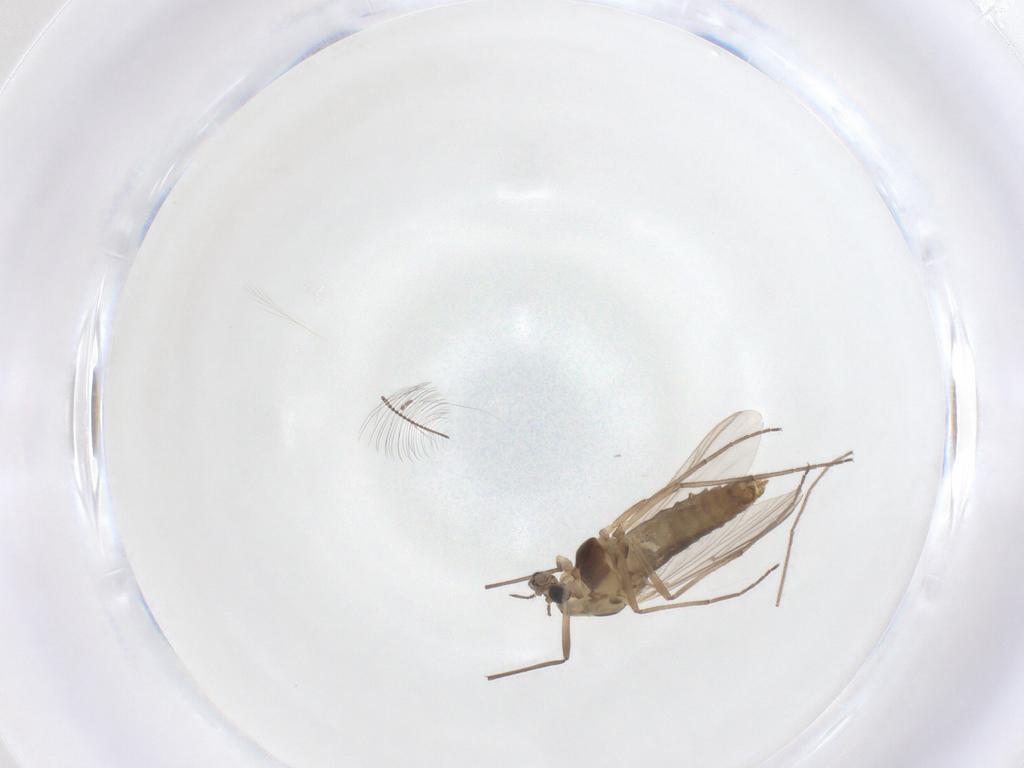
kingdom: Animalia
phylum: Arthropoda
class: Insecta
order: Diptera
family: Chironomidae
